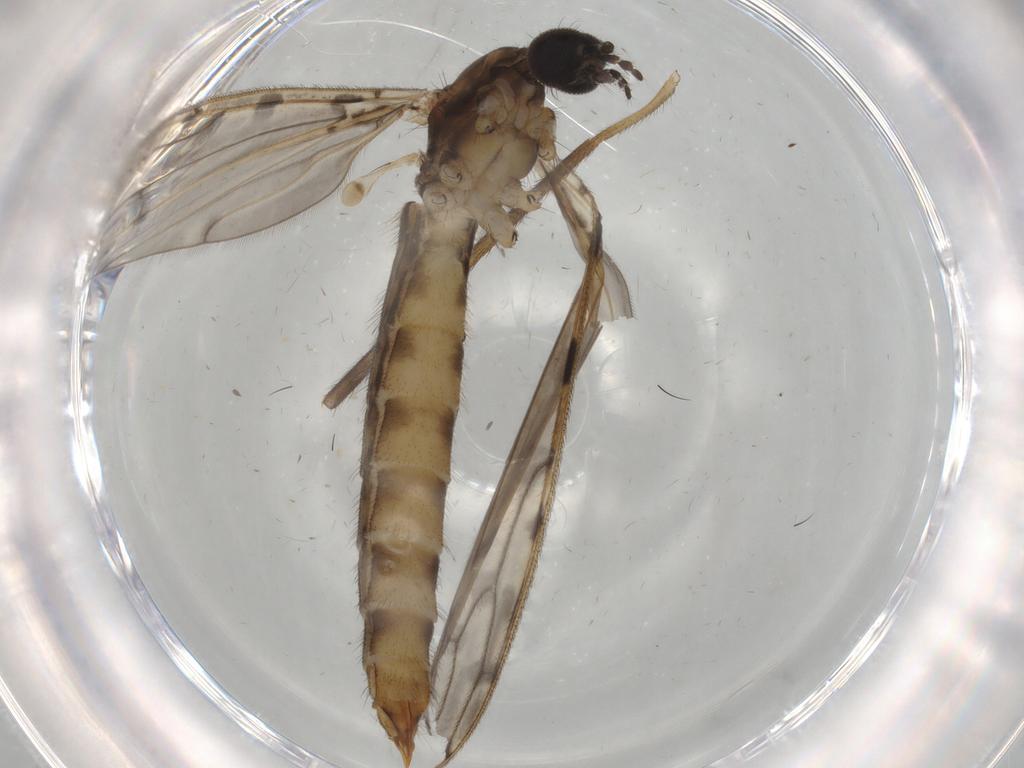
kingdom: Animalia
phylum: Arthropoda
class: Insecta
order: Diptera
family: Limoniidae
